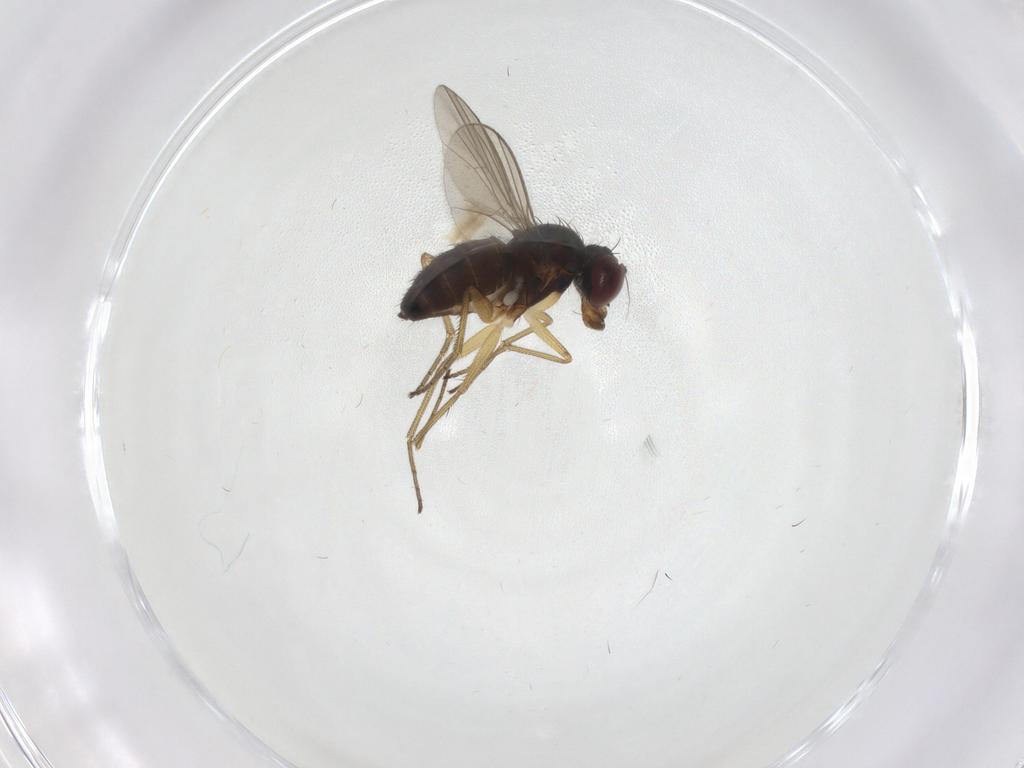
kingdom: Animalia
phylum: Arthropoda
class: Insecta
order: Diptera
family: Dolichopodidae
